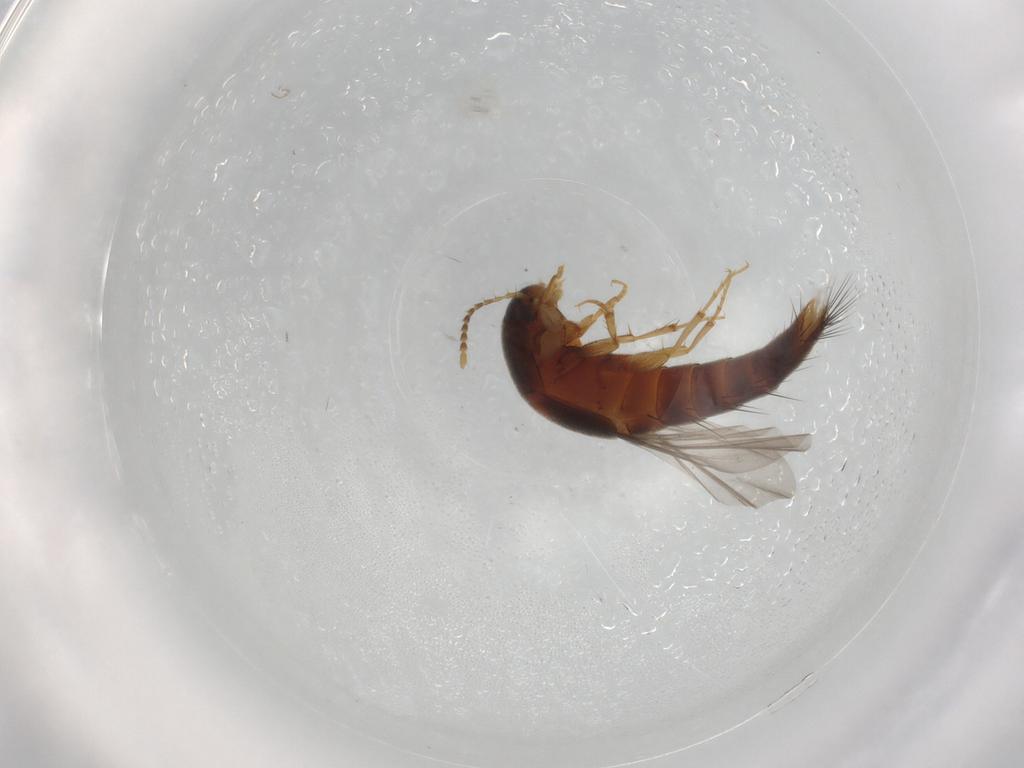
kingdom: Animalia
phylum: Arthropoda
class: Insecta
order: Coleoptera
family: Staphylinidae
